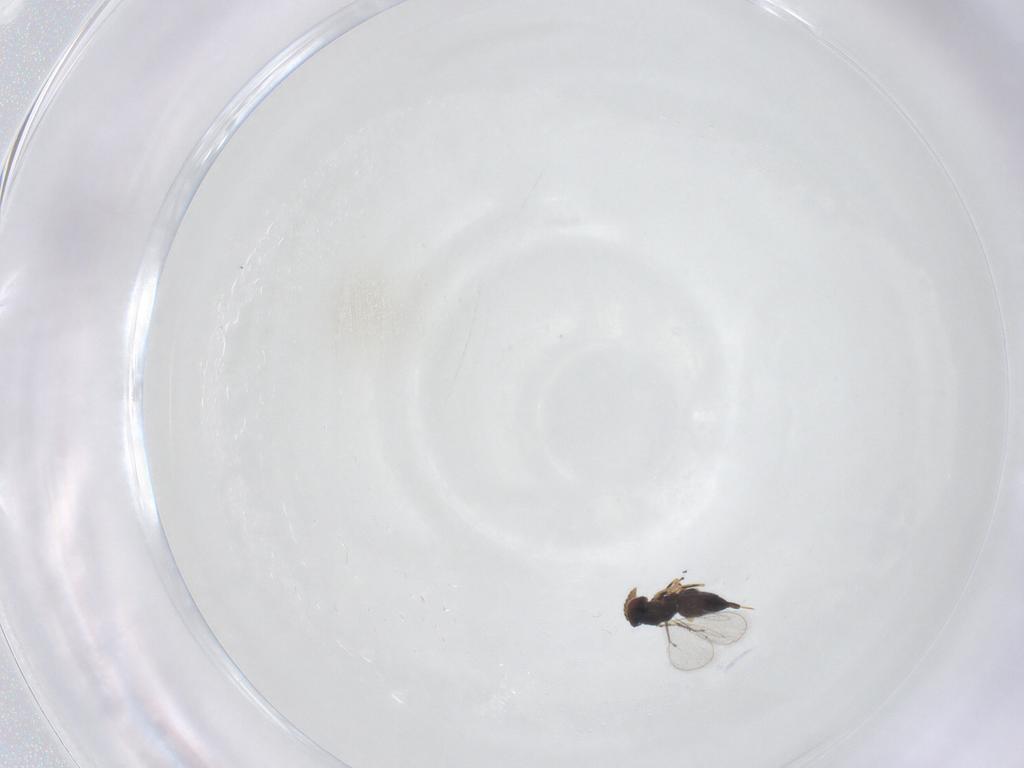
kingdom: Animalia
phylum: Arthropoda
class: Insecta
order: Hymenoptera
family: Eulophidae
